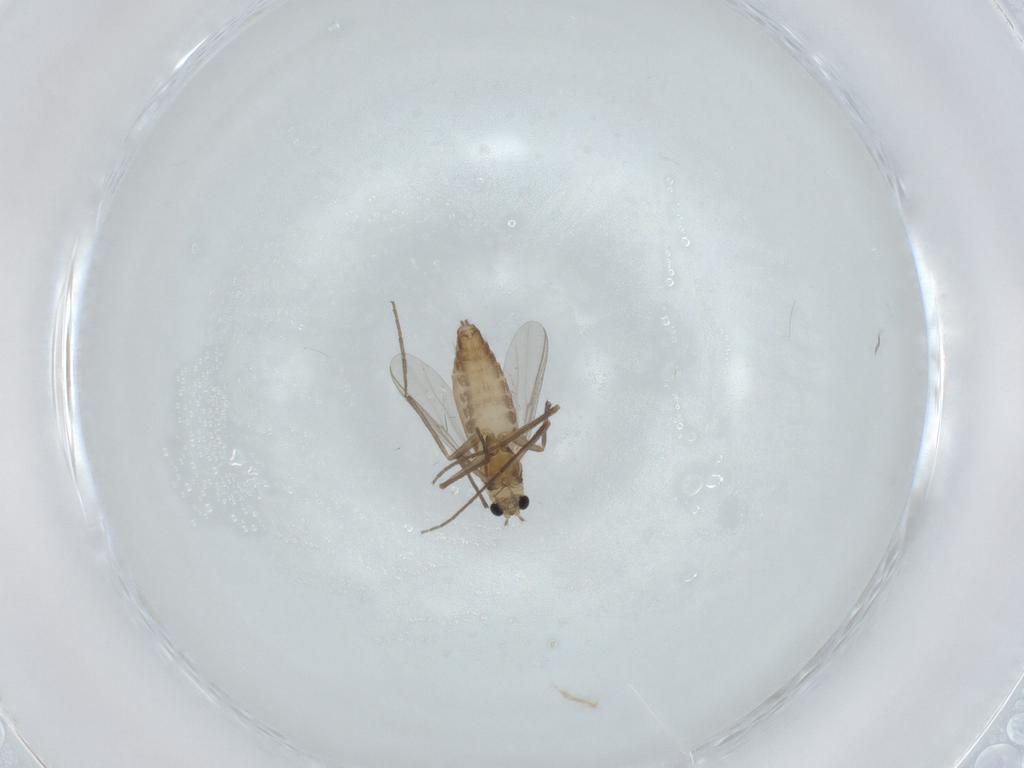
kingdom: Animalia
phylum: Arthropoda
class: Insecta
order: Diptera
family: Chironomidae
